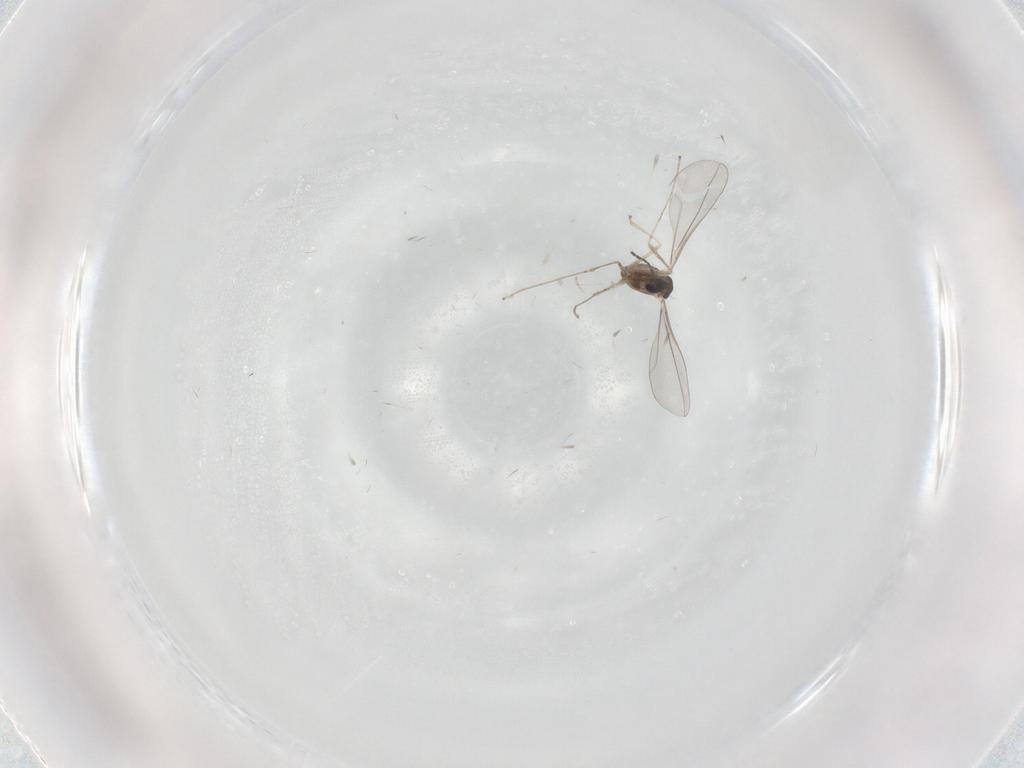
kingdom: Animalia
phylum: Arthropoda
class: Insecta
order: Diptera
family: Cecidomyiidae
